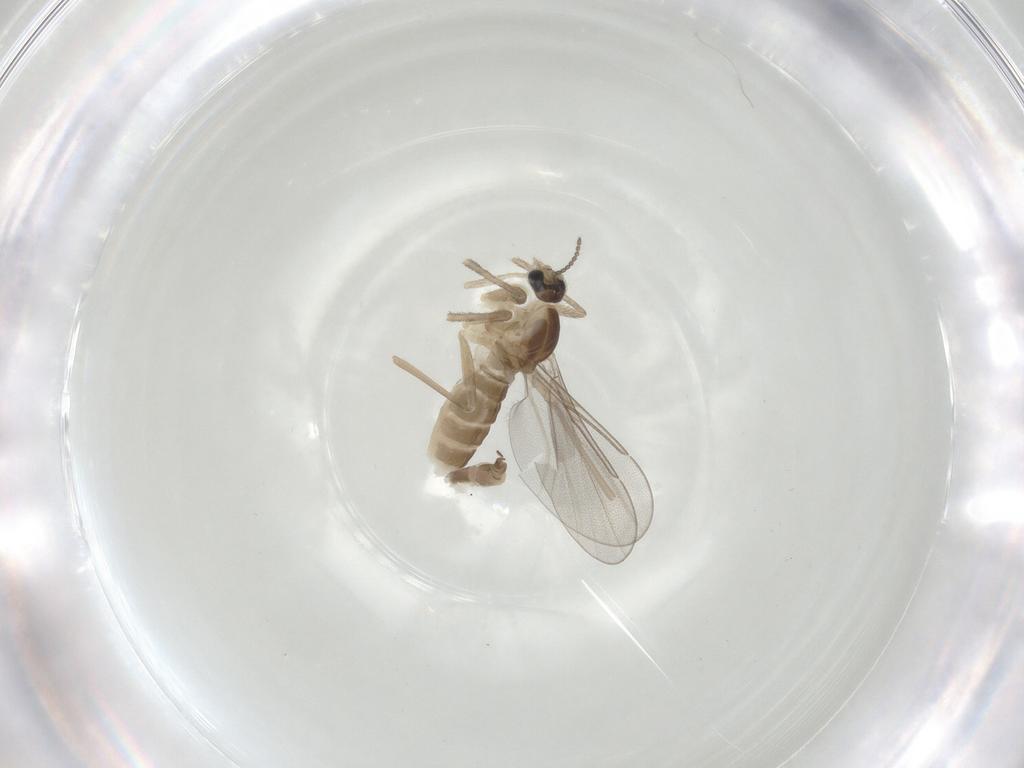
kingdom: Animalia
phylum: Arthropoda
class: Insecta
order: Diptera
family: Cecidomyiidae
